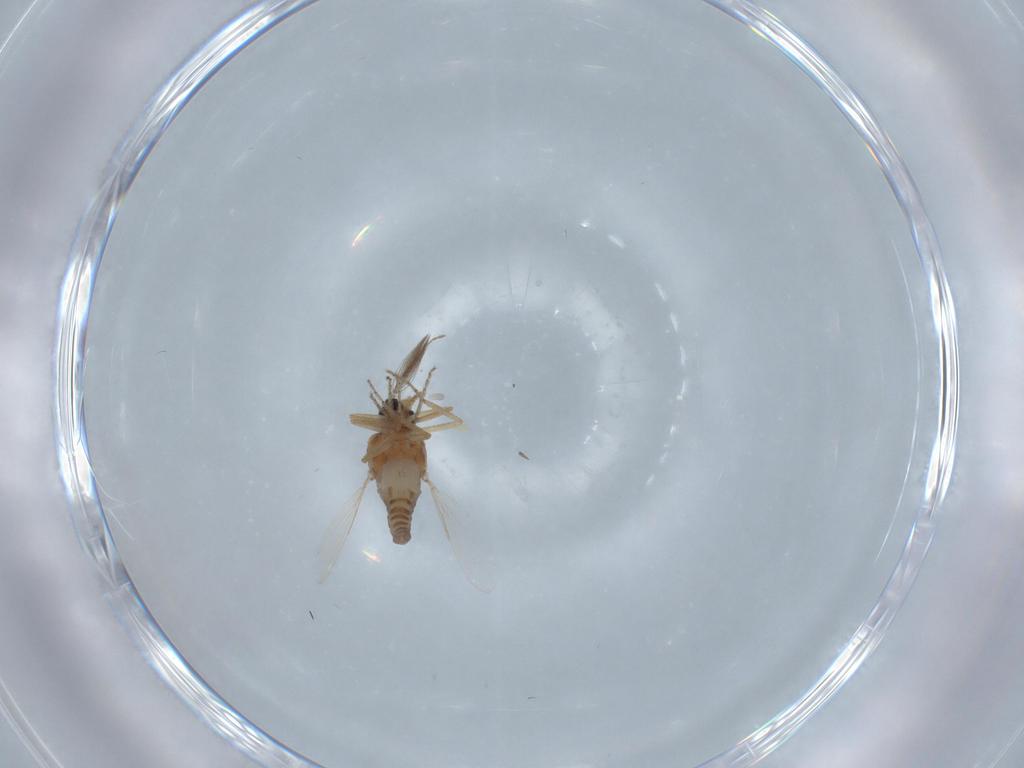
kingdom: Animalia
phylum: Arthropoda
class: Insecta
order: Diptera
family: Ceratopogonidae
